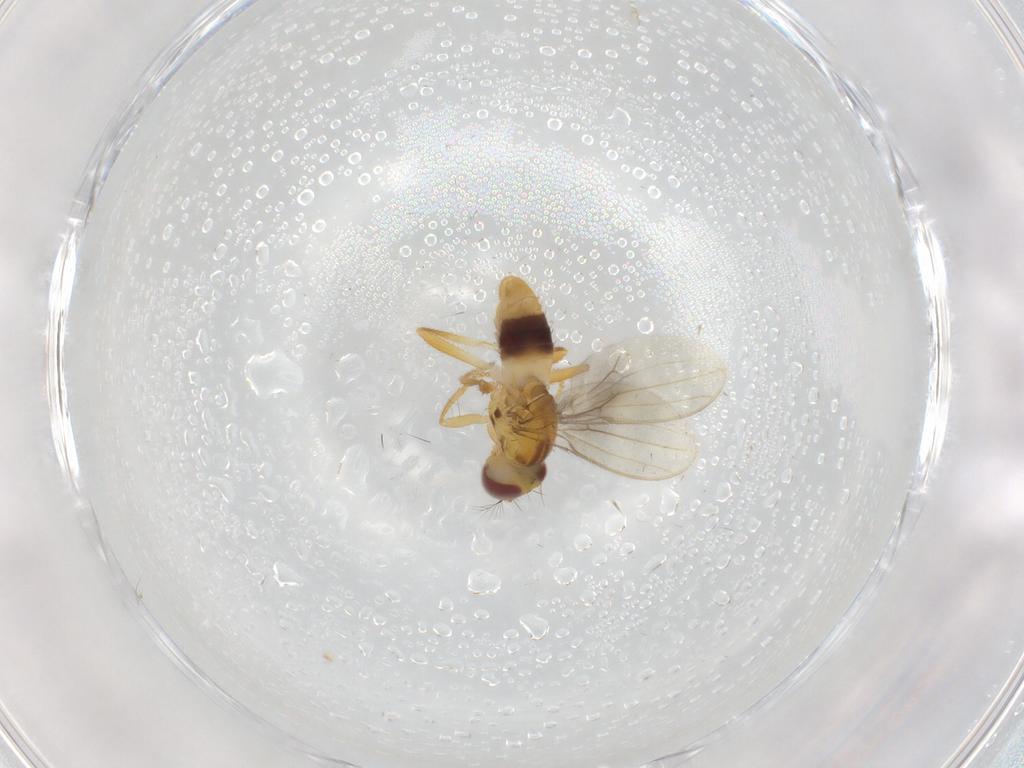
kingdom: Animalia
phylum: Arthropoda
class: Insecta
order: Diptera
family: Periscelididae
